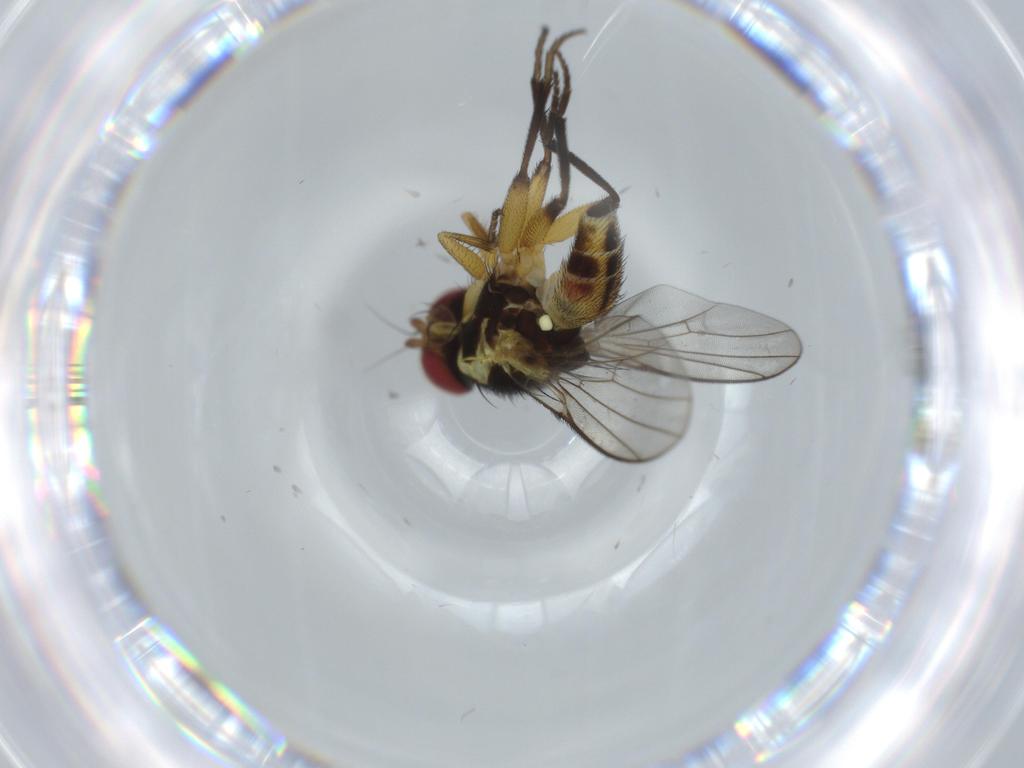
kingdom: Animalia
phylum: Arthropoda
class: Insecta
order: Diptera
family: Agromyzidae
